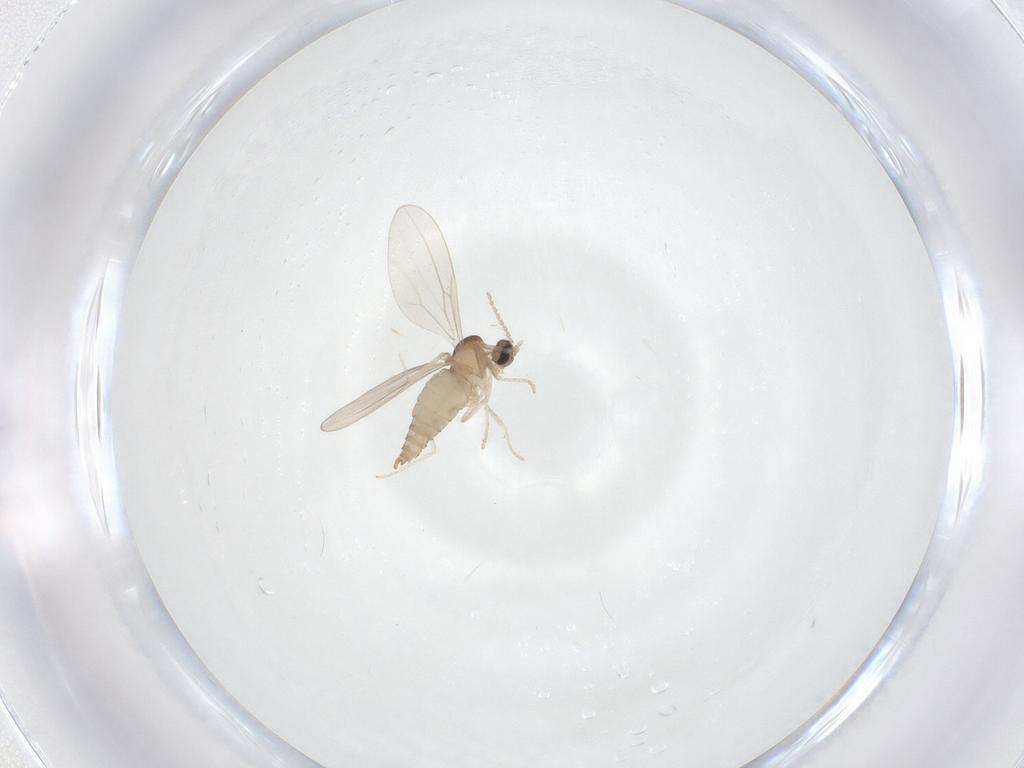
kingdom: Animalia
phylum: Arthropoda
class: Insecta
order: Diptera
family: Cecidomyiidae
